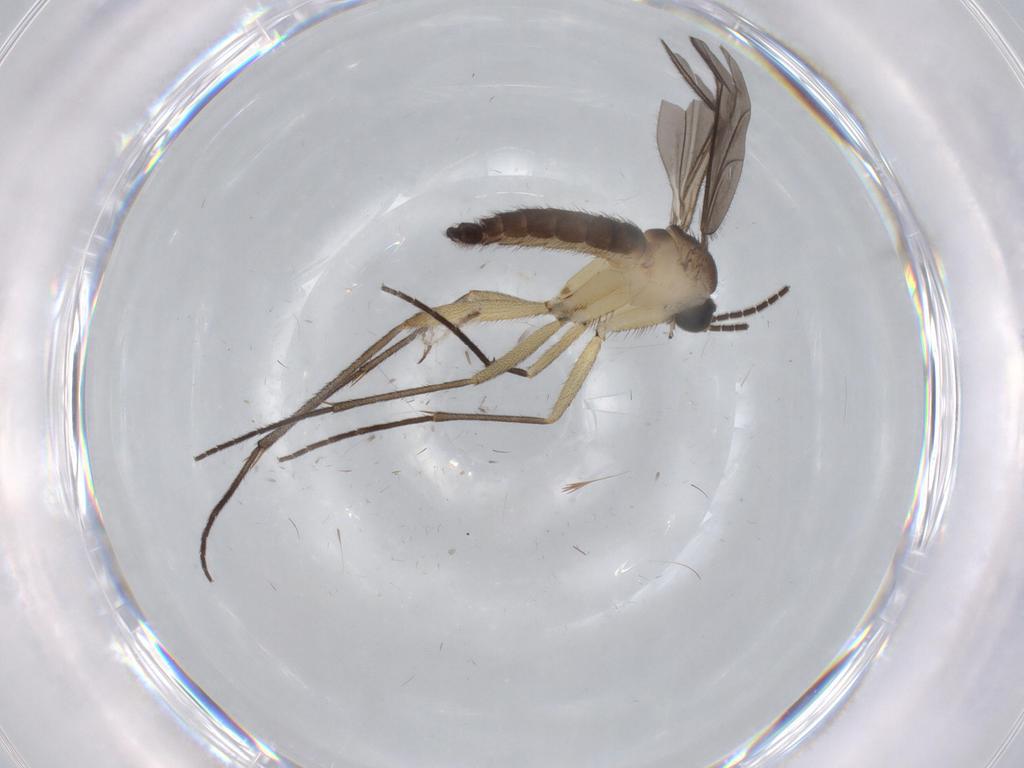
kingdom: Animalia
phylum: Arthropoda
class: Insecta
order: Diptera
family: Sciaridae
